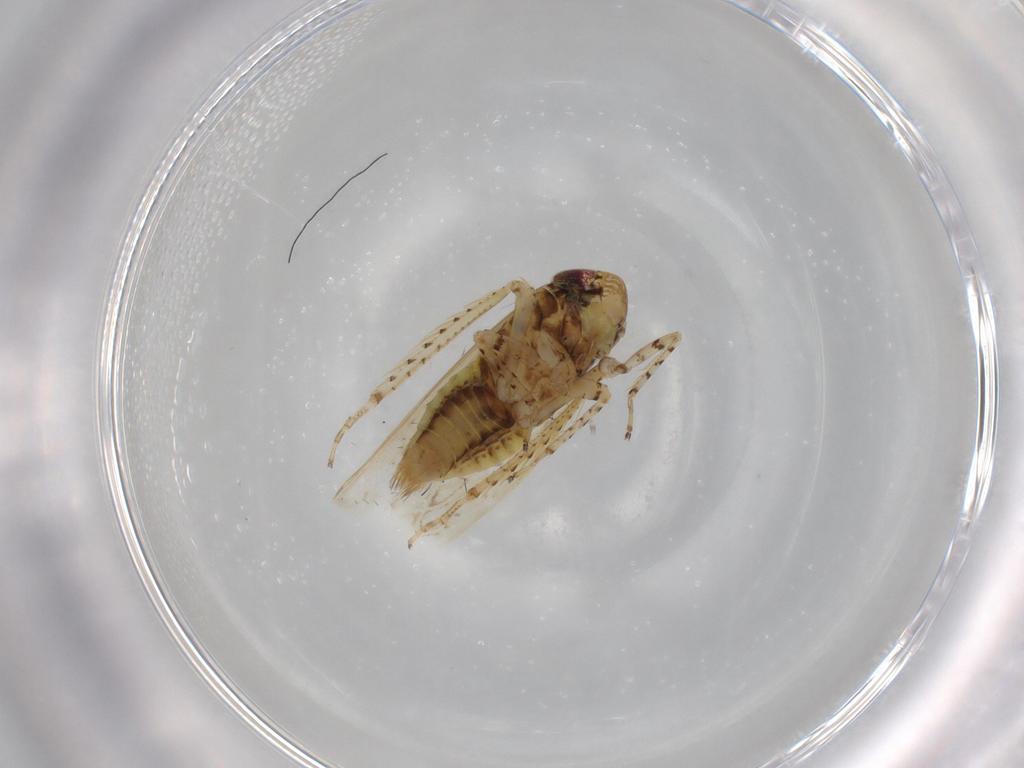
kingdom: Animalia
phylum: Arthropoda
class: Insecta
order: Hemiptera
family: Cicadellidae
